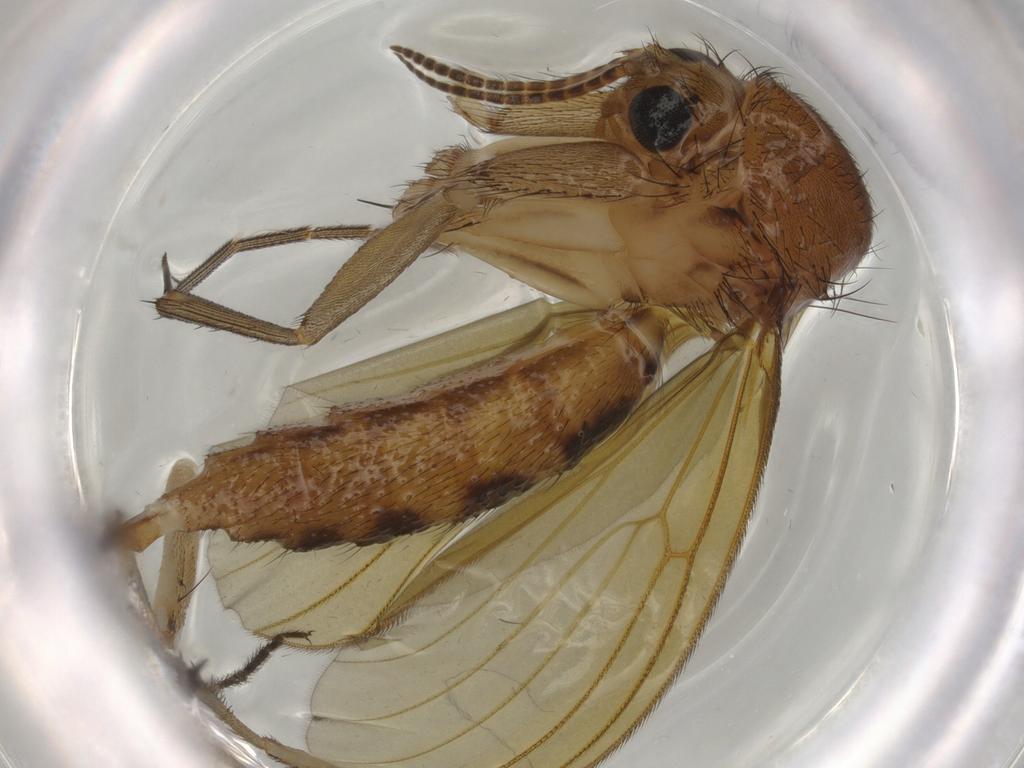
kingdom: Animalia
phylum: Arthropoda
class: Insecta
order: Diptera
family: Mycetophilidae
